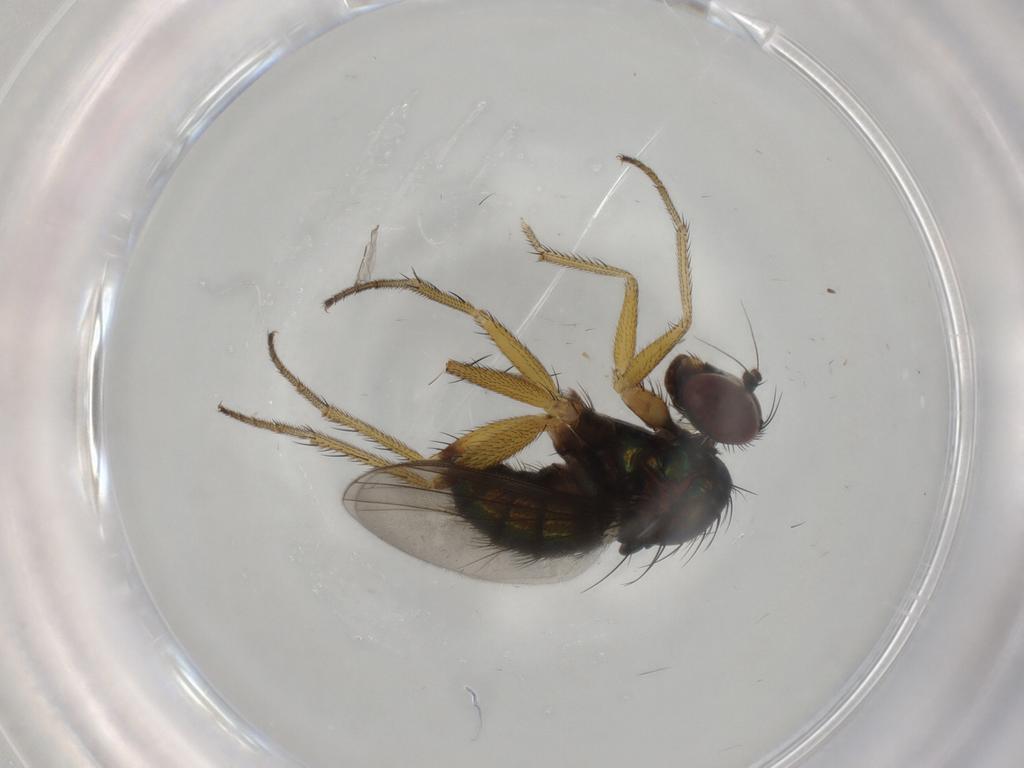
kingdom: Animalia
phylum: Arthropoda
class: Insecta
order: Diptera
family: Dolichopodidae
